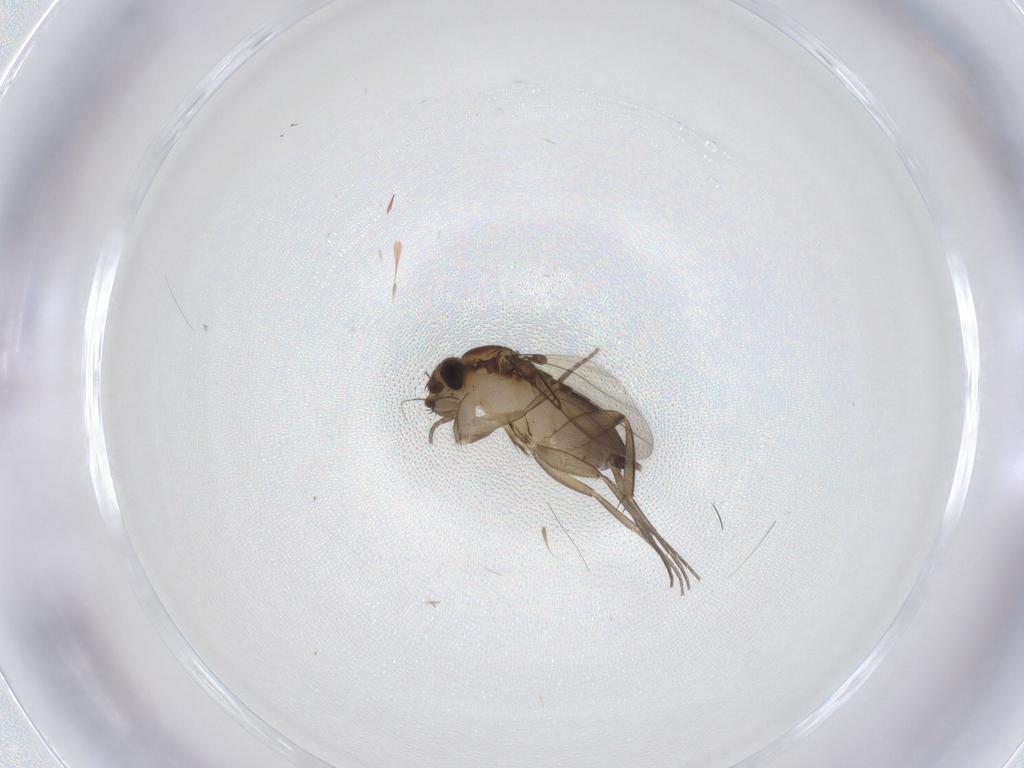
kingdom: Animalia
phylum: Arthropoda
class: Insecta
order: Diptera
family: Phoridae
